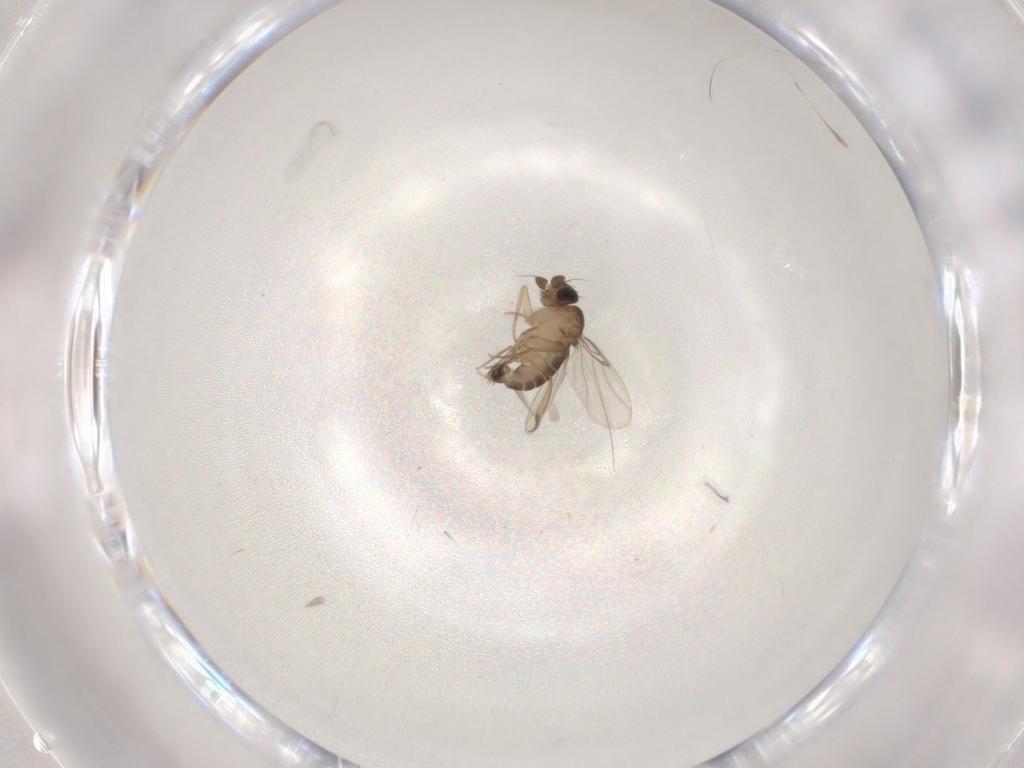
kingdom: Animalia
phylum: Arthropoda
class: Insecta
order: Diptera
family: Phoridae
